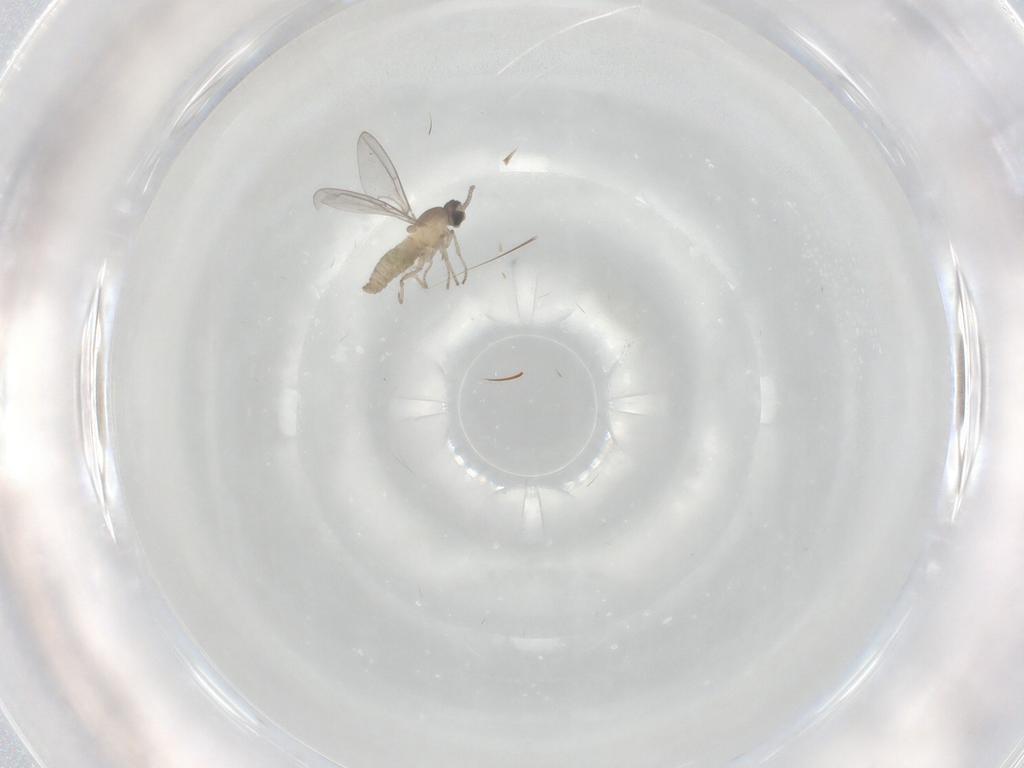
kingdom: Animalia
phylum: Arthropoda
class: Insecta
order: Diptera
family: Cecidomyiidae
